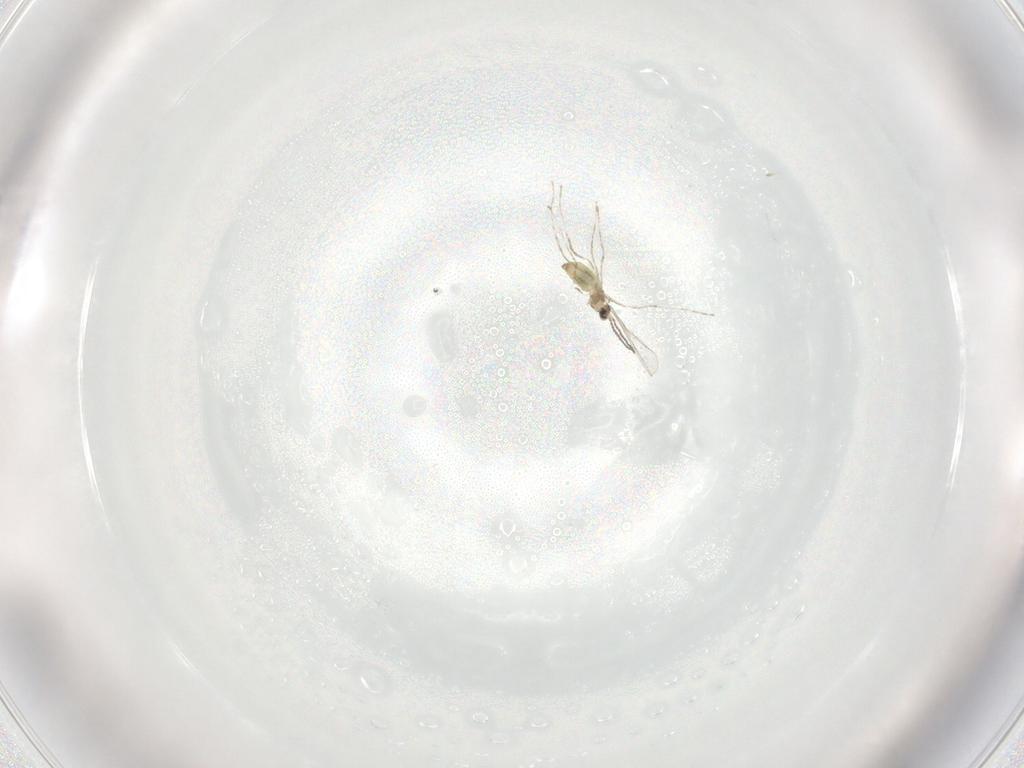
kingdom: Animalia
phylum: Arthropoda
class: Insecta
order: Diptera
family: Cecidomyiidae
